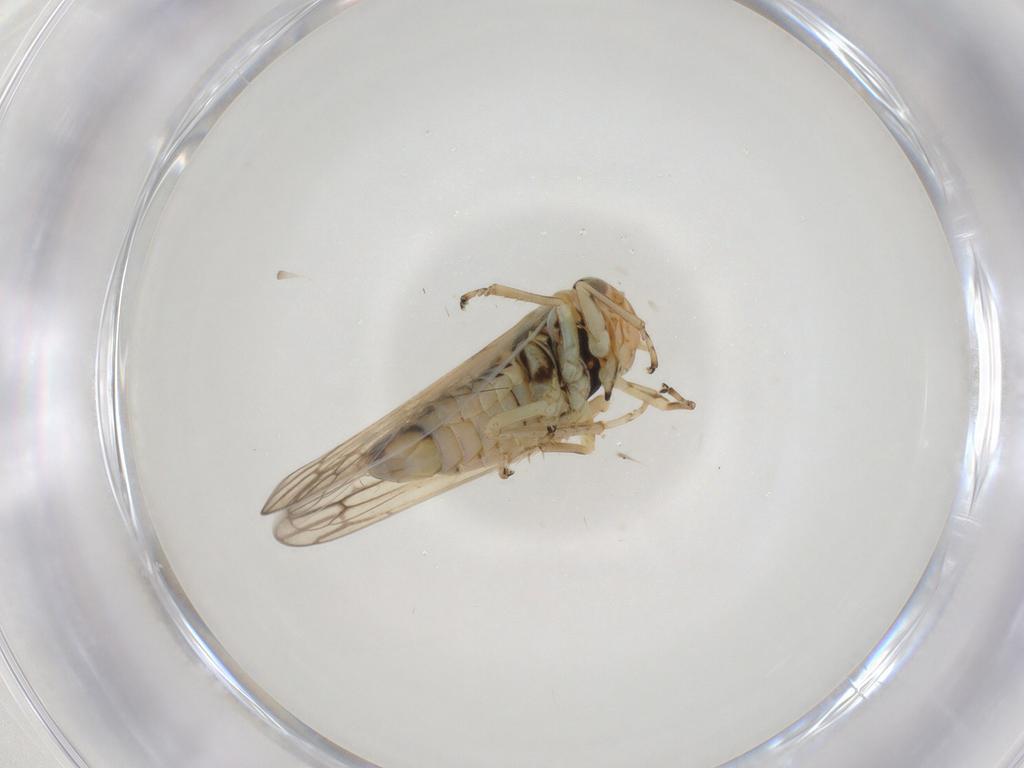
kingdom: Animalia
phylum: Arthropoda
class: Insecta
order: Hemiptera
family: Cicadellidae
